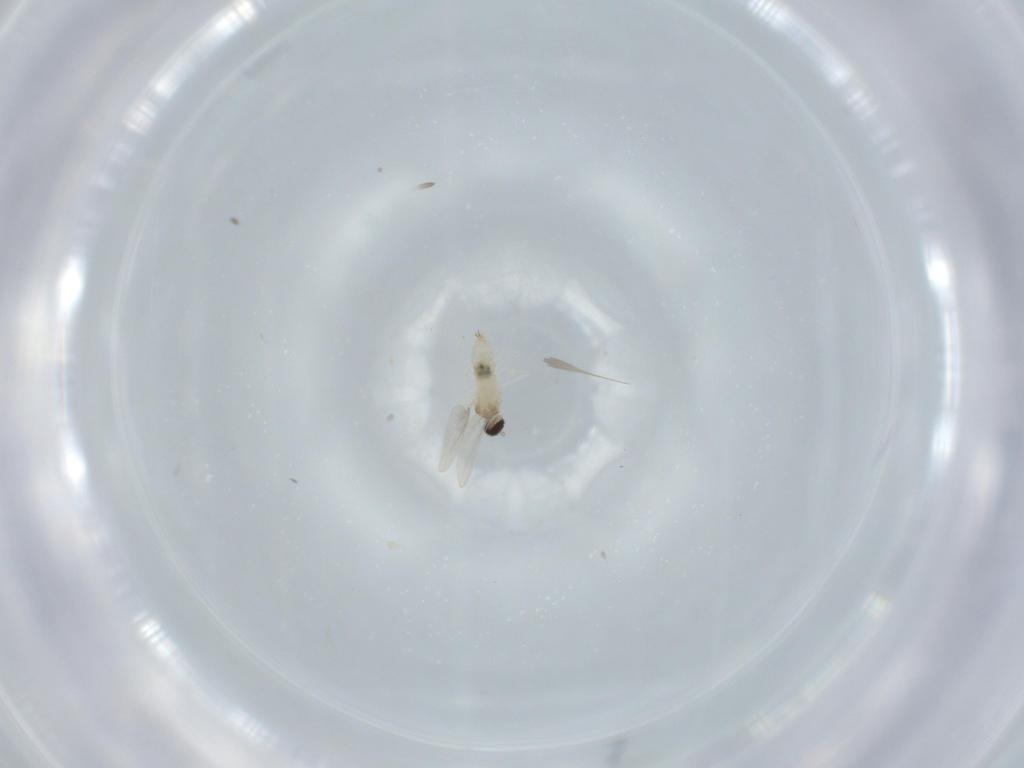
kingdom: Animalia
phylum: Arthropoda
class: Insecta
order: Diptera
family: Cecidomyiidae
